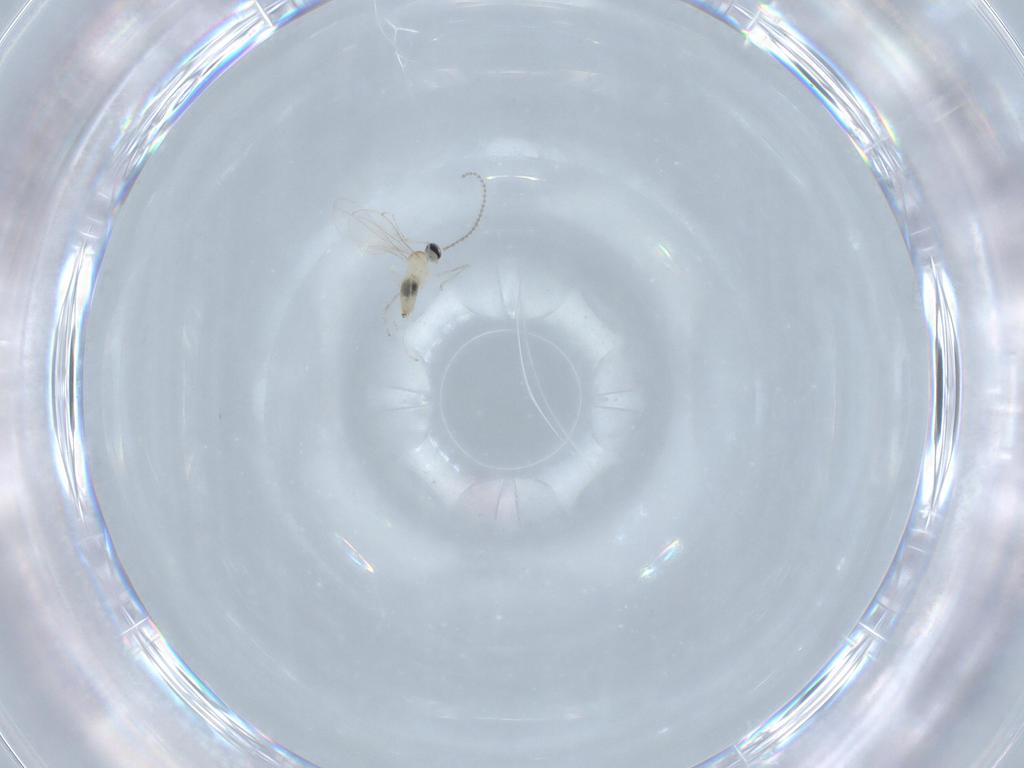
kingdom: Animalia
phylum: Arthropoda
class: Insecta
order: Diptera
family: Cecidomyiidae
